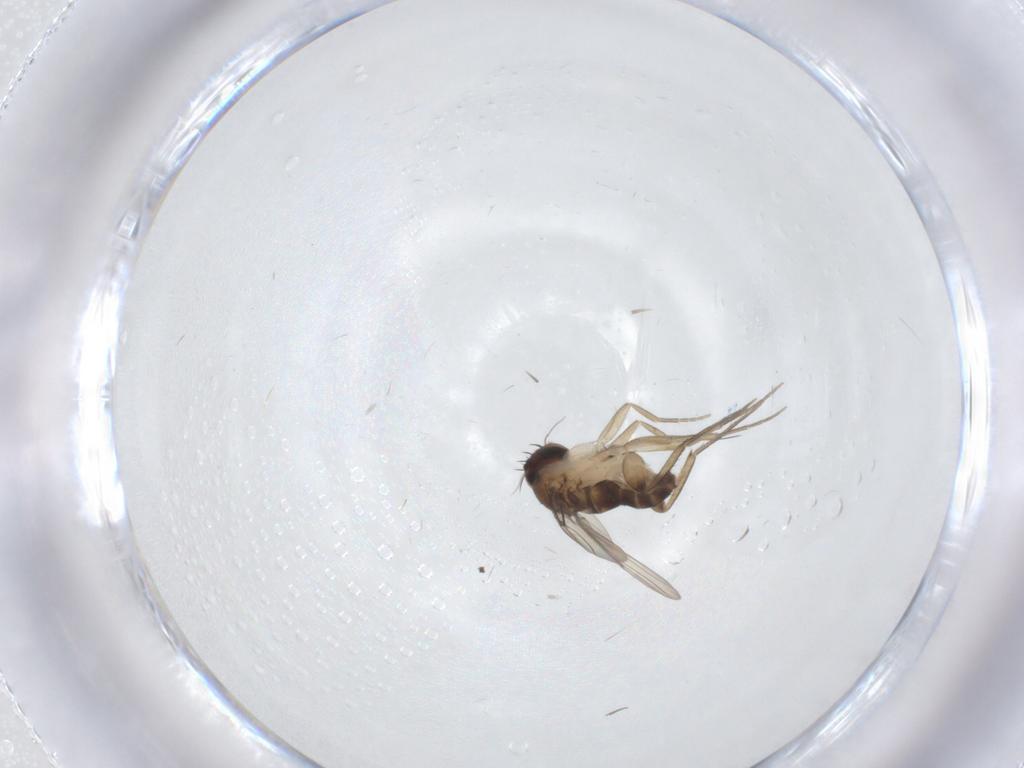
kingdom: Animalia
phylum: Arthropoda
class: Insecta
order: Diptera
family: Phoridae
